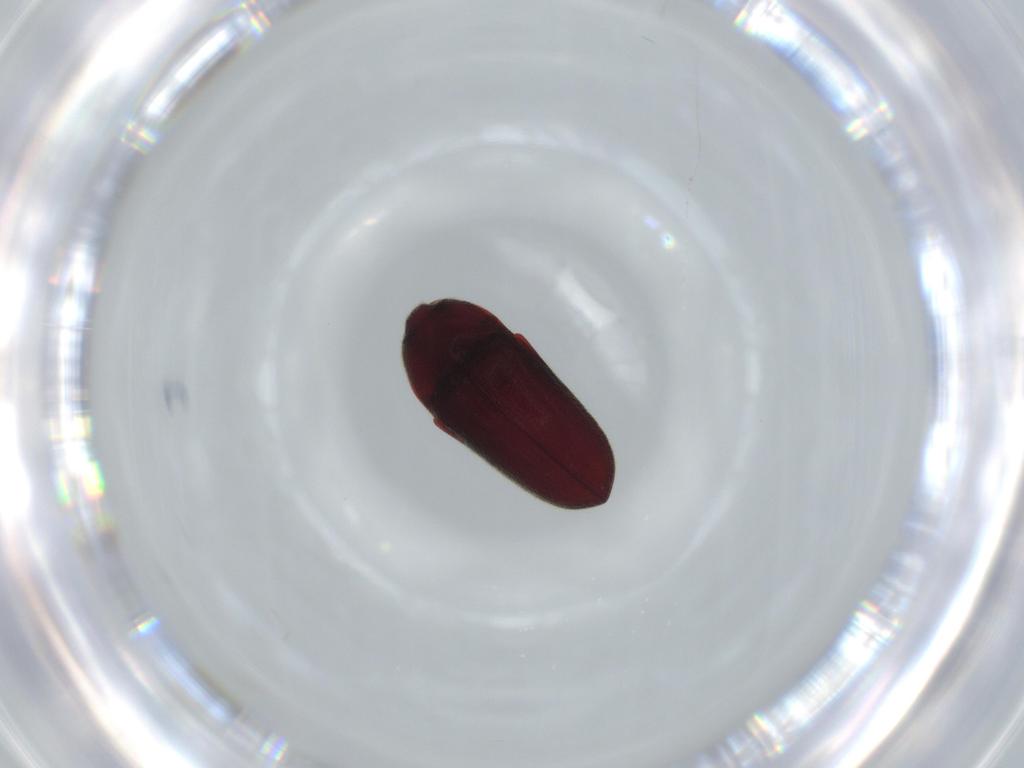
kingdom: Animalia
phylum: Arthropoda
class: Insecta
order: Coleoptera
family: Throscidae
